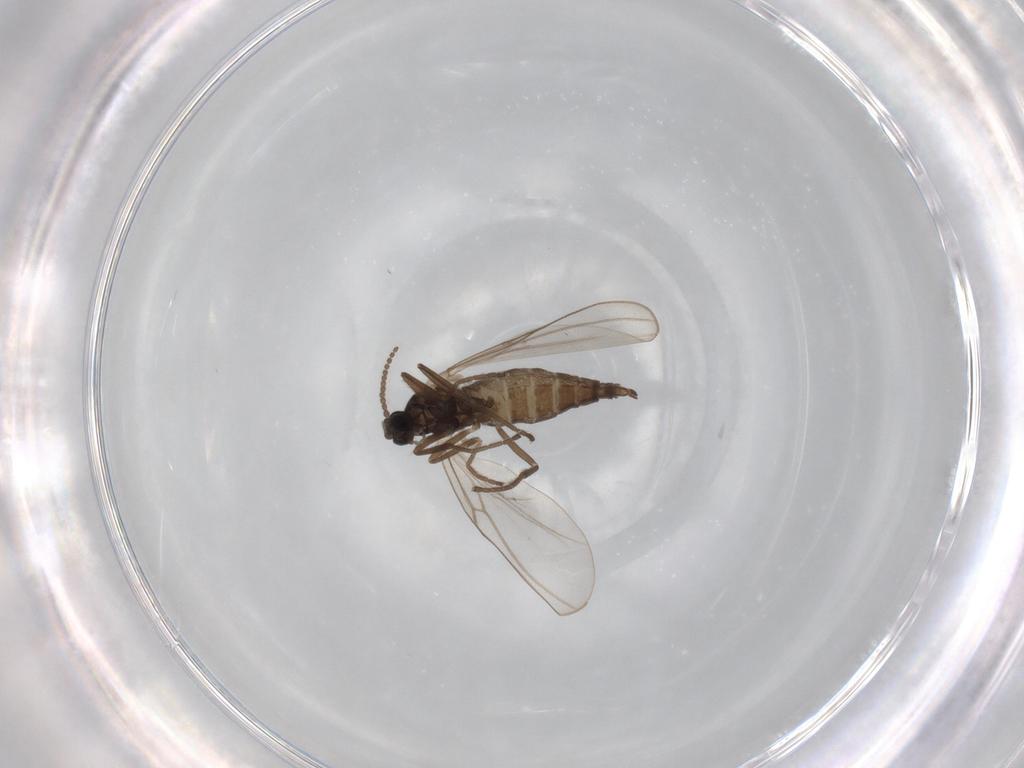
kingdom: Animalia
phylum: Arthropoda
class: Insecta
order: Diptera
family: Cecidomyiidae
